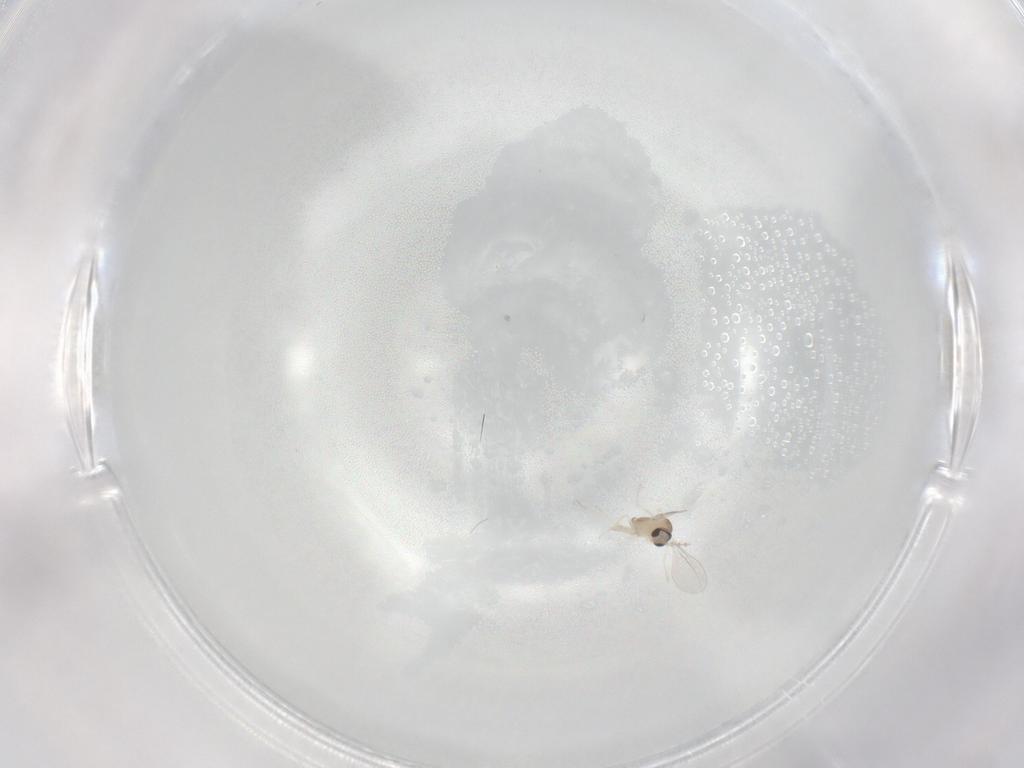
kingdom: Animalia
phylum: Arthropoda
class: Insecta
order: Diptera
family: Cecidomyiidae
